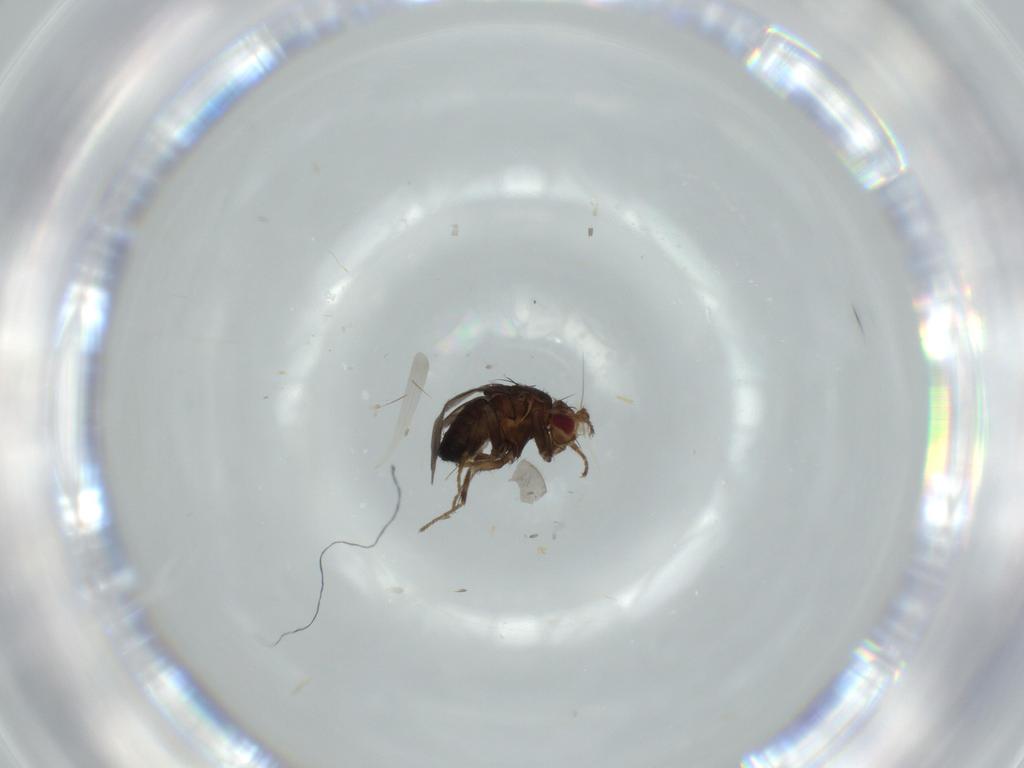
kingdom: Animalia
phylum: Arthropoda
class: Insecta
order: Diptera
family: Sphaeroceridae
